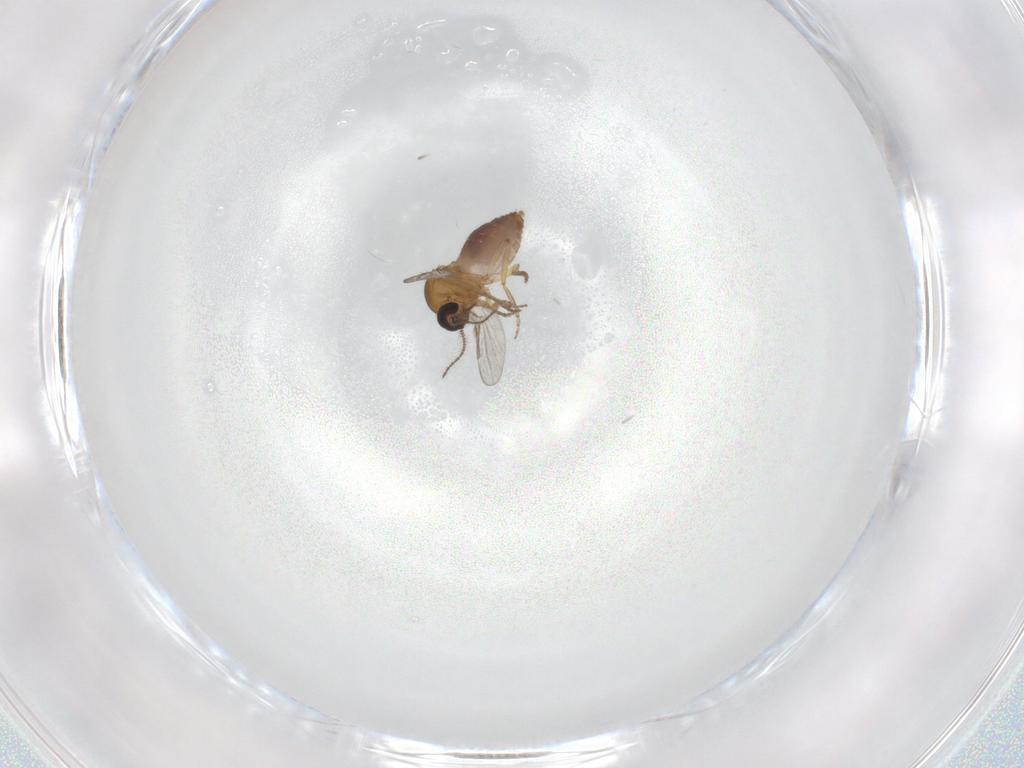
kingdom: Animalia
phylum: Arthropoda
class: Insecta
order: Diptera
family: Ceratopogonidae
